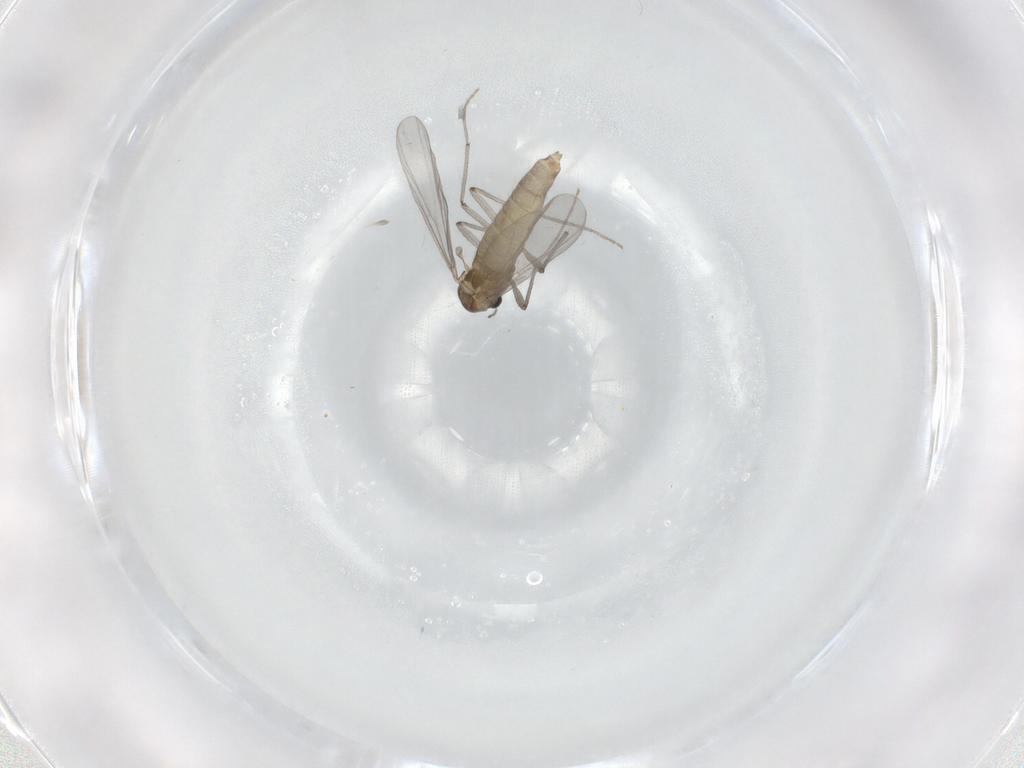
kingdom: Animalia
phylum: Arthropoda
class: Insecta
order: Diptera
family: Chironomidae
